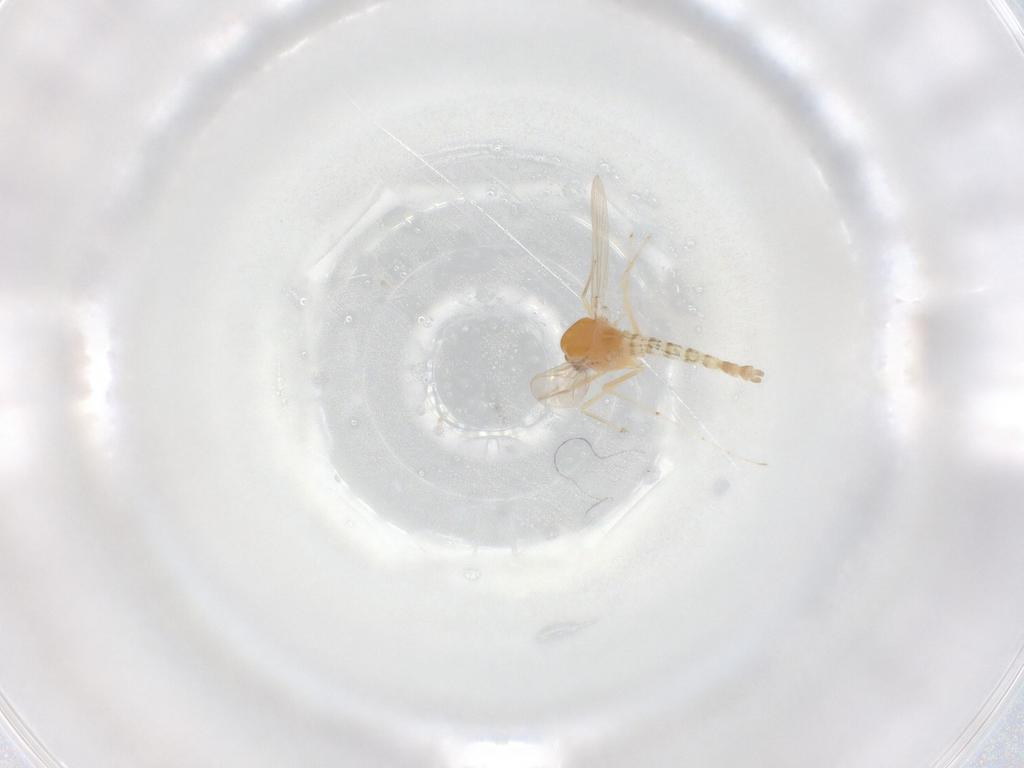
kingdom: Animalia
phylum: Arthropoda
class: Insecta
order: Diptera
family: Chironomidae
